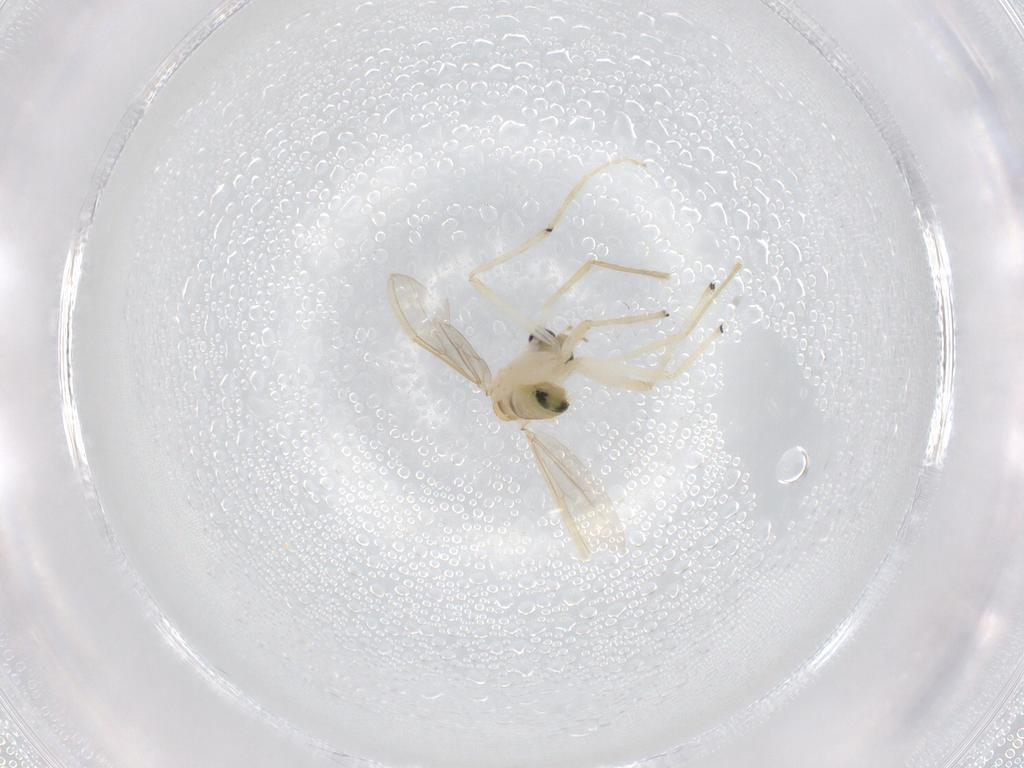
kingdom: Animalia
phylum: Arthropoda
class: Insecta
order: Diptera
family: Chironomidae
